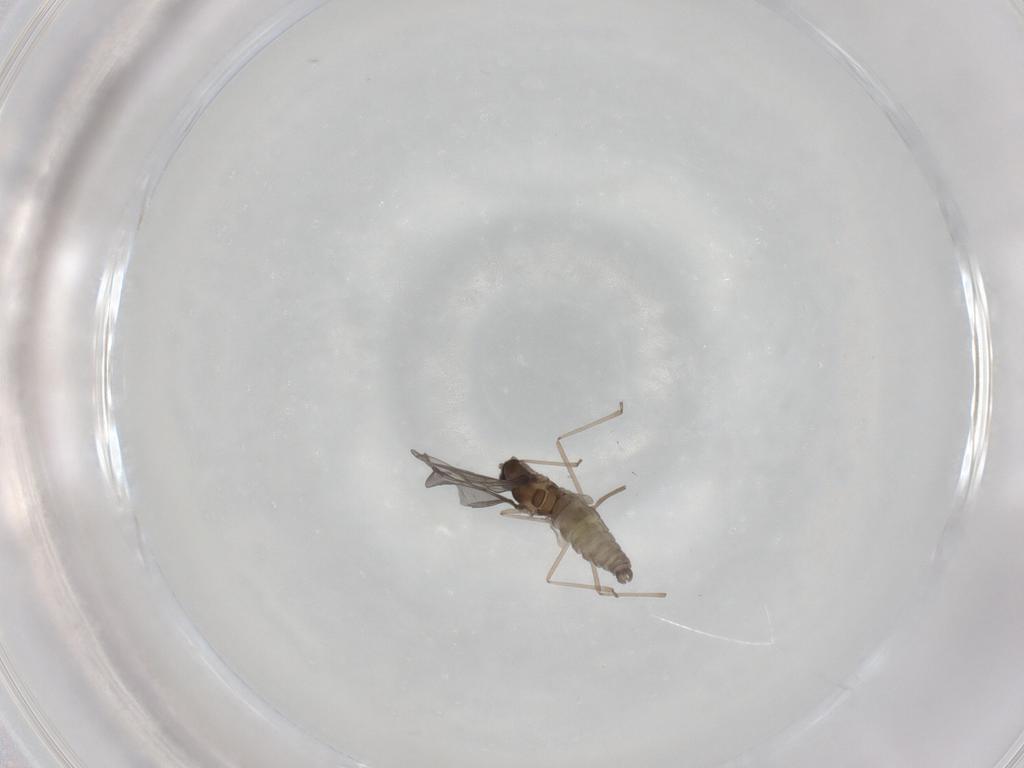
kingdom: Animalia
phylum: Arthropoda
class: Insecta
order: Diptera
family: Cecidomyiidae
